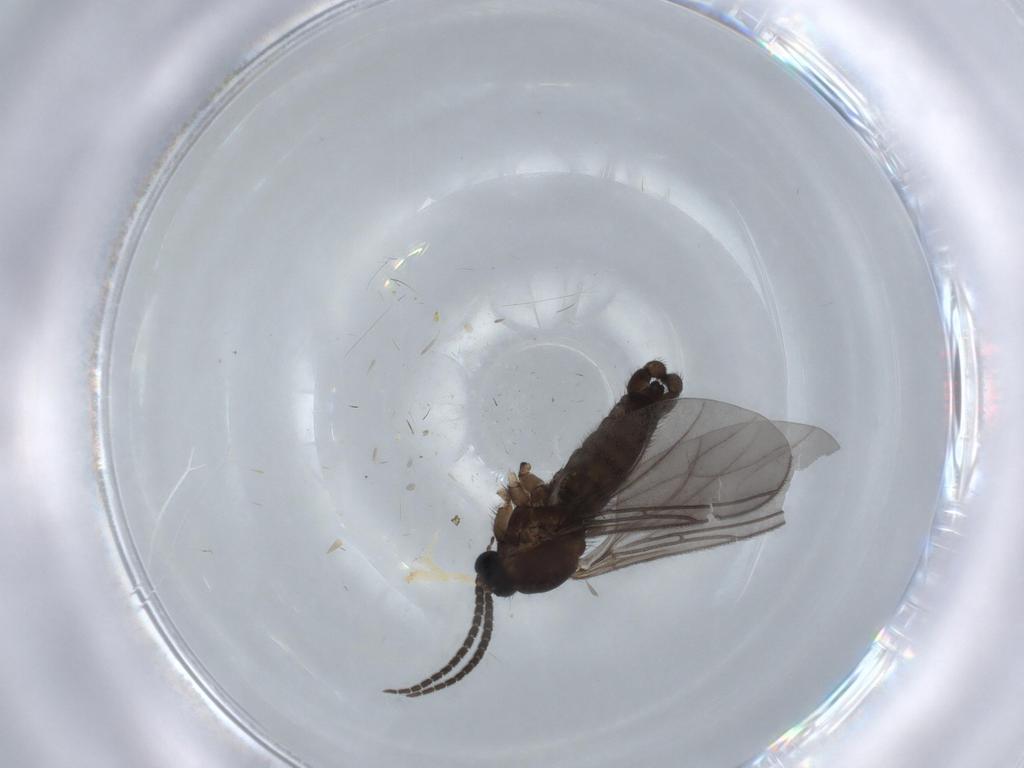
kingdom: Animalia
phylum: Arthropoda
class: Insecta
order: Diptera
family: Sciaridae
